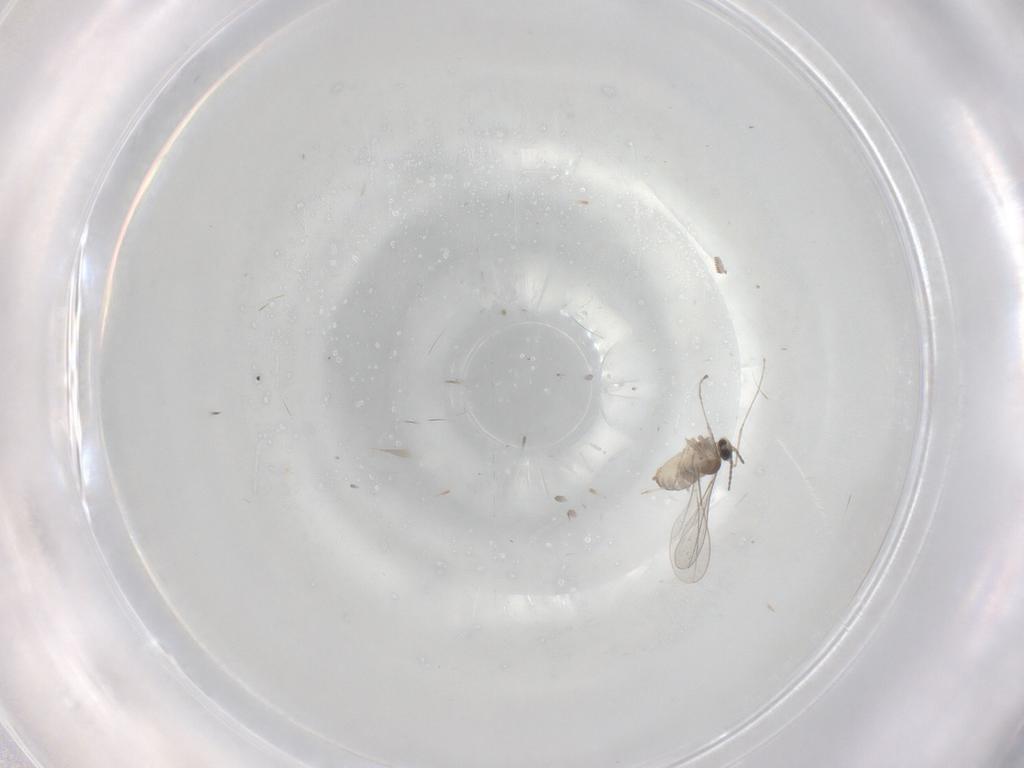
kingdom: Animalia
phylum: Arthropoda
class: Insecta
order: Diptera
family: Cecidomyiidae
